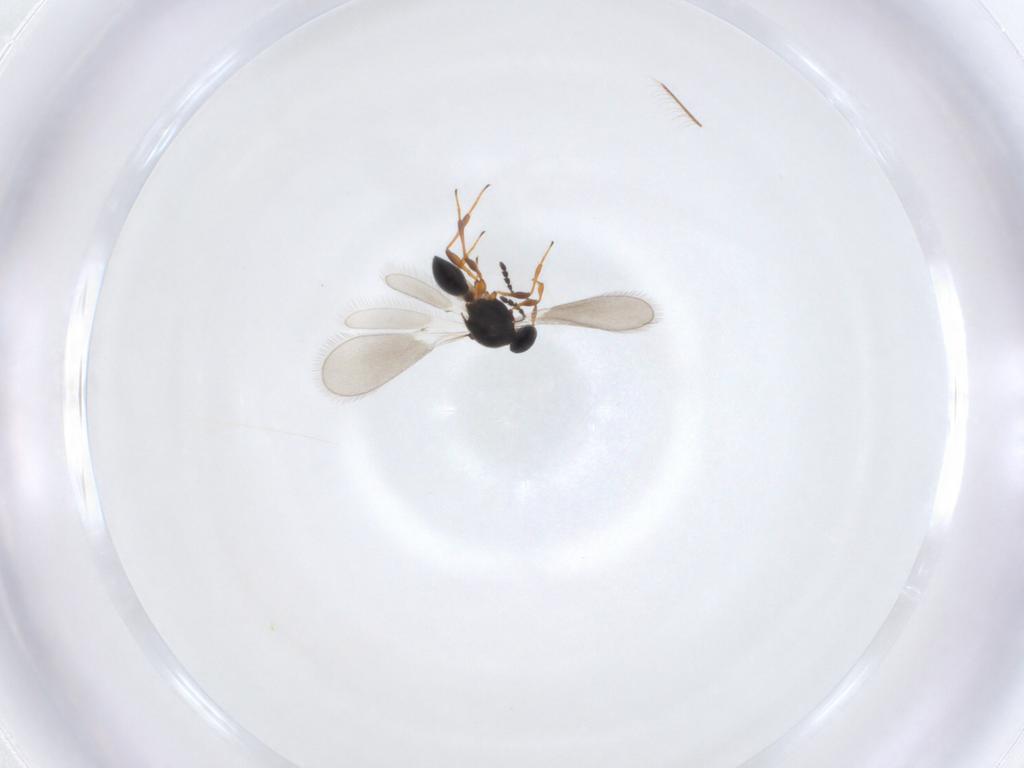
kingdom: Animalia
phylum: Arthropoda
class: Insecta
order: Hymenoptera
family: Platygastridae
